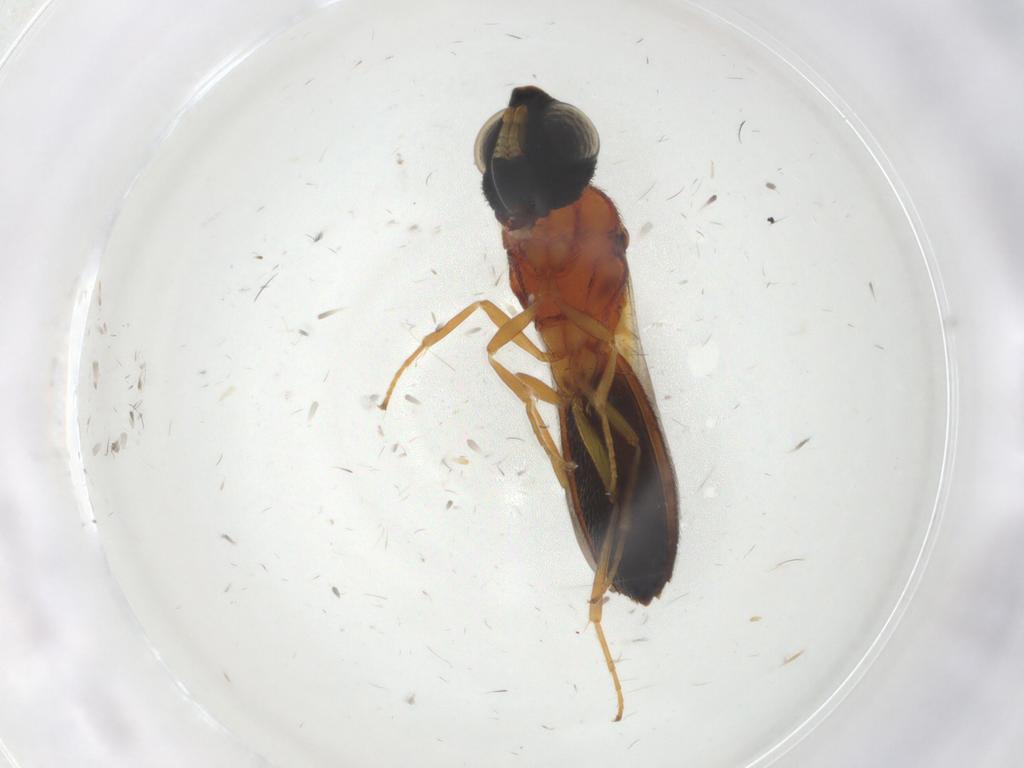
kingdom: Animalia
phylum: Arthropoda
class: Insecta
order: Hymenoptera
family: Scelionidae
